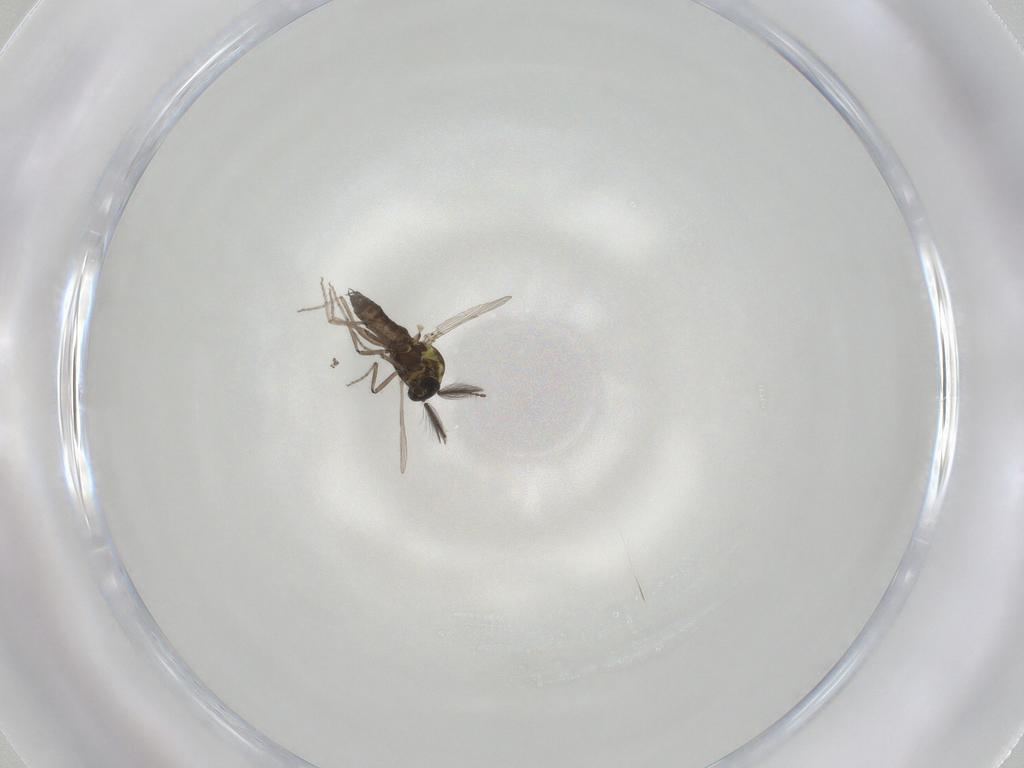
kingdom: Animalia
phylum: Arthropoda
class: Insecta
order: Diptera
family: Ceratopogonidae
